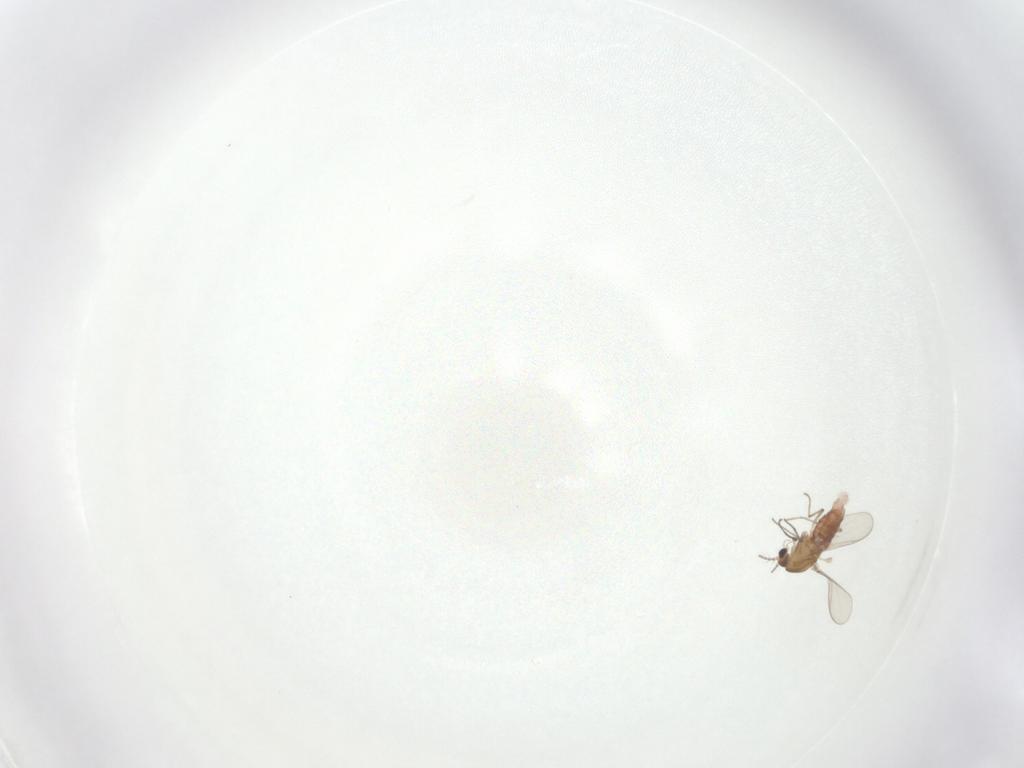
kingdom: Animalia
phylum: Arthropoda
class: Insecta
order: Diptera
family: Chironomidae
